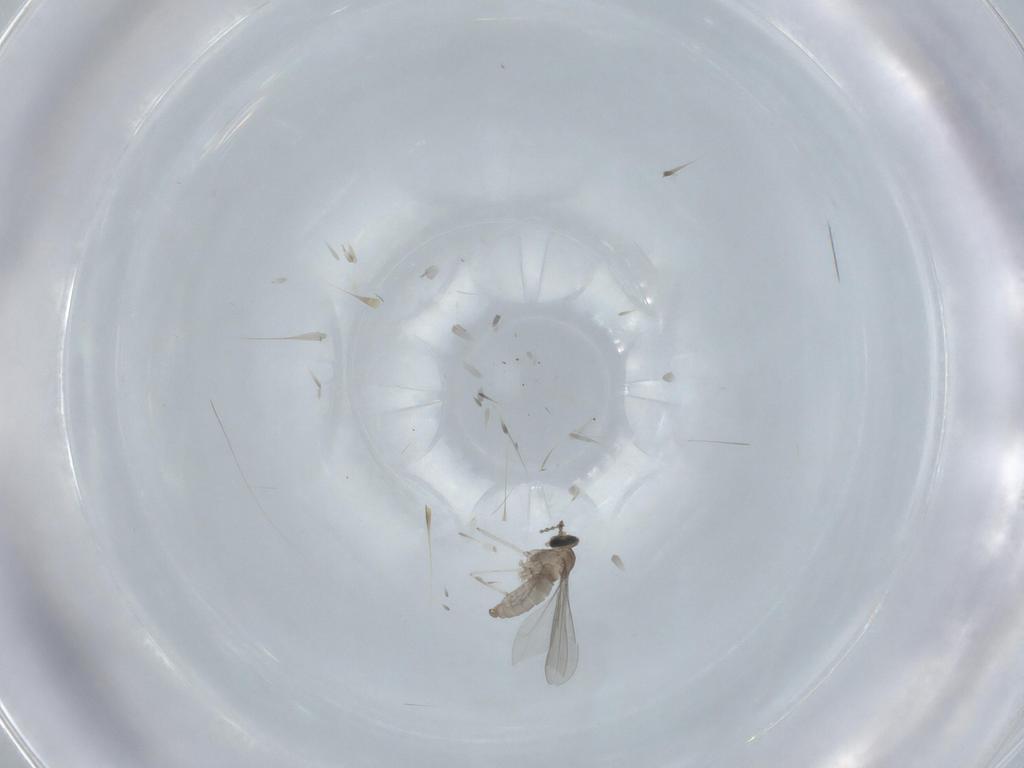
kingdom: Animalia
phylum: Arthropoda
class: Insecta
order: Diptera
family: Cecidomyiidae
